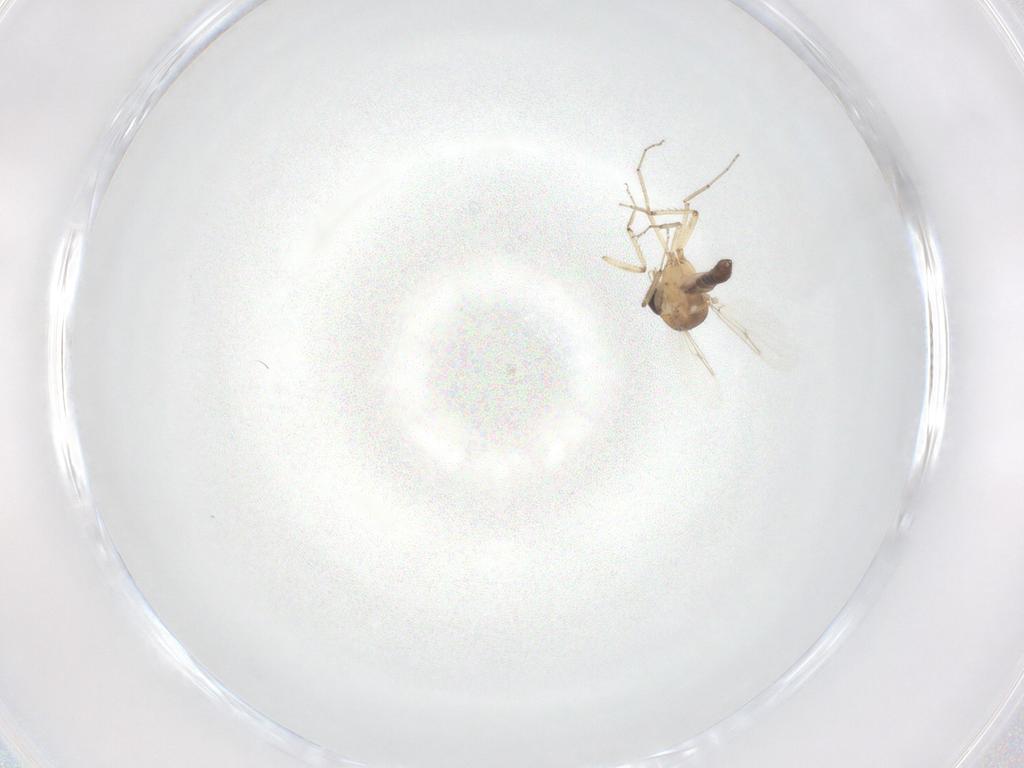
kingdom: Animalia
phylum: Arthropoda
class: Insecta
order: Diptera
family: Ceratopogonidae
